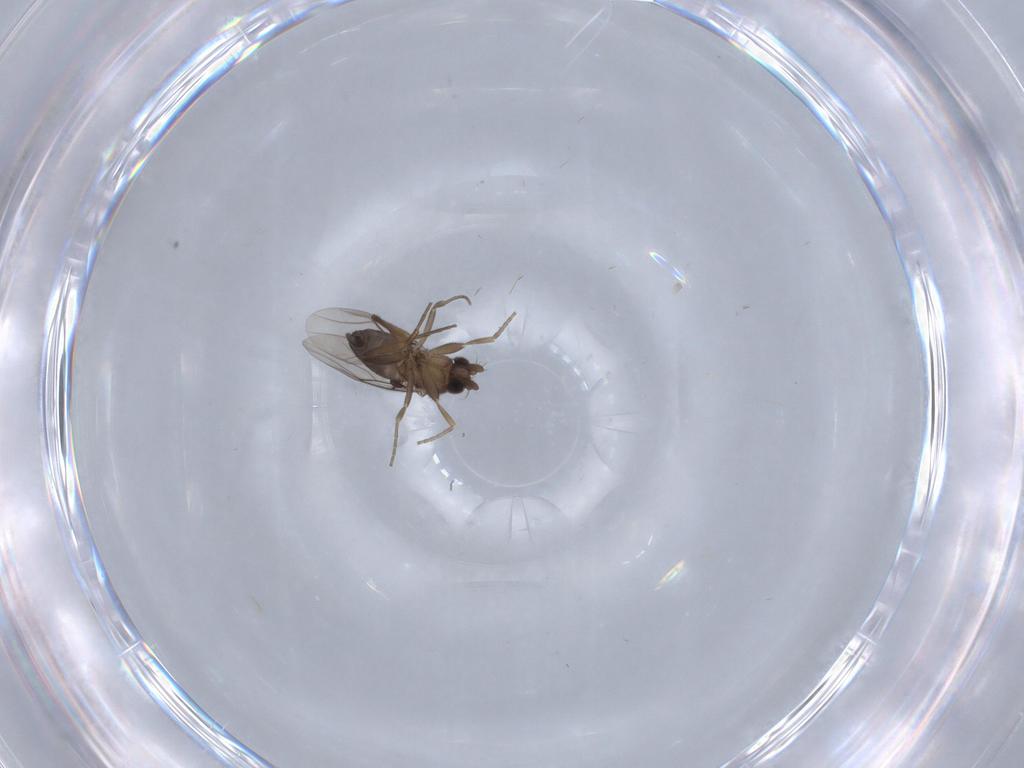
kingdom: Animalia
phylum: Arthropoda
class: Insecta
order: Diptera
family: Phoridae
